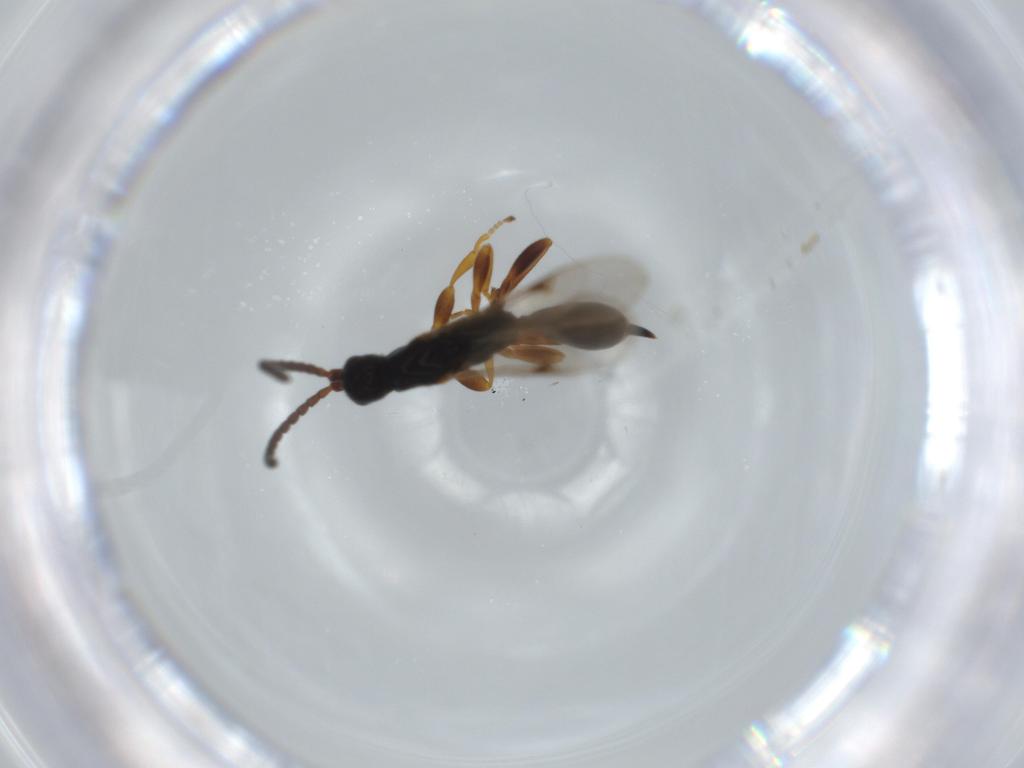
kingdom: Animalia
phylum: Arthropoda
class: Insecta
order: Hymenoptera
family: Proctotrupidae
